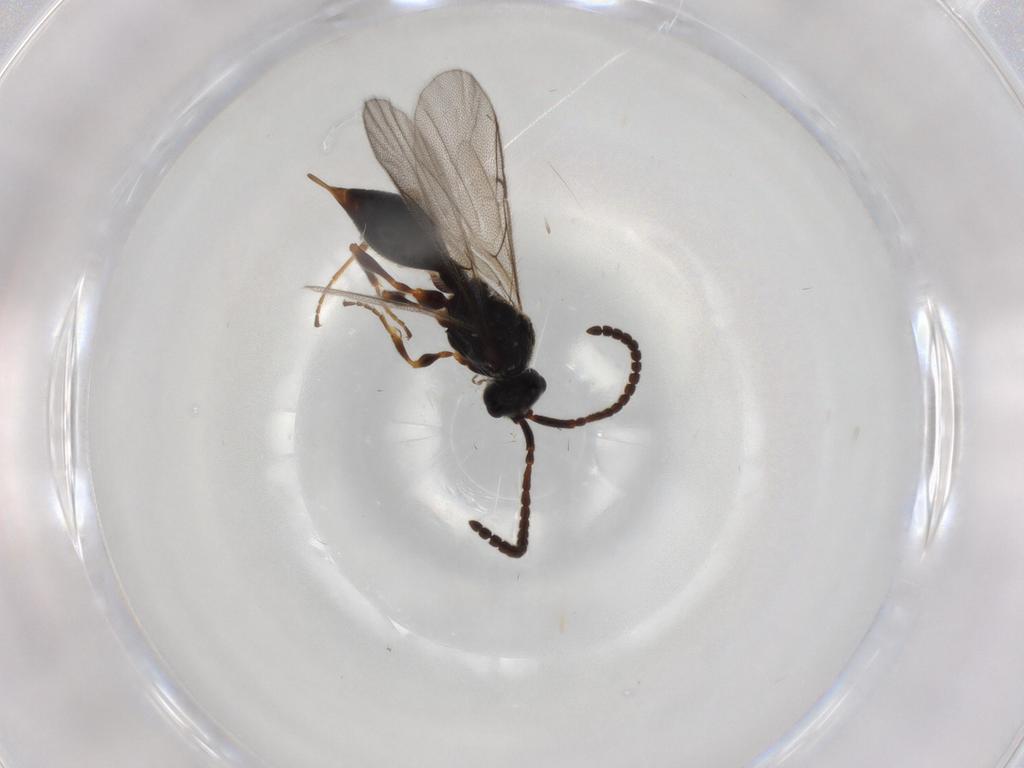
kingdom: Animalia
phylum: Arthropoda
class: Insecta
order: Hymenoptera
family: Diapriidae
